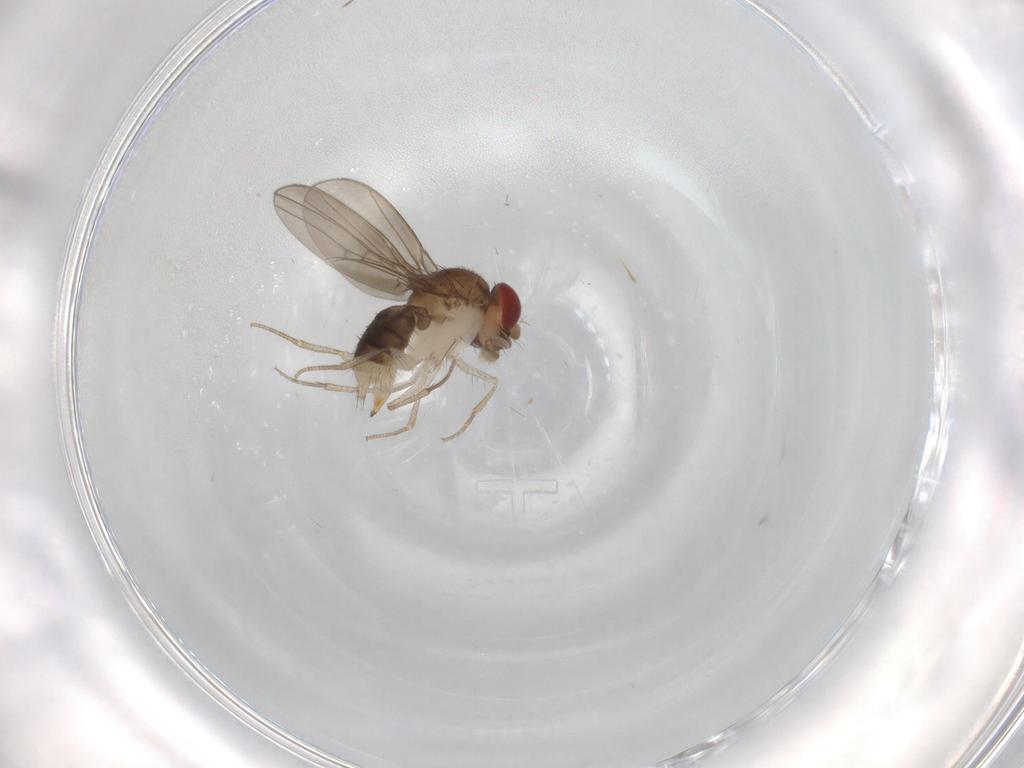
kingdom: Animalia
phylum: Arthropoda
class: Insecta
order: Diptera
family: Drosophilidae
